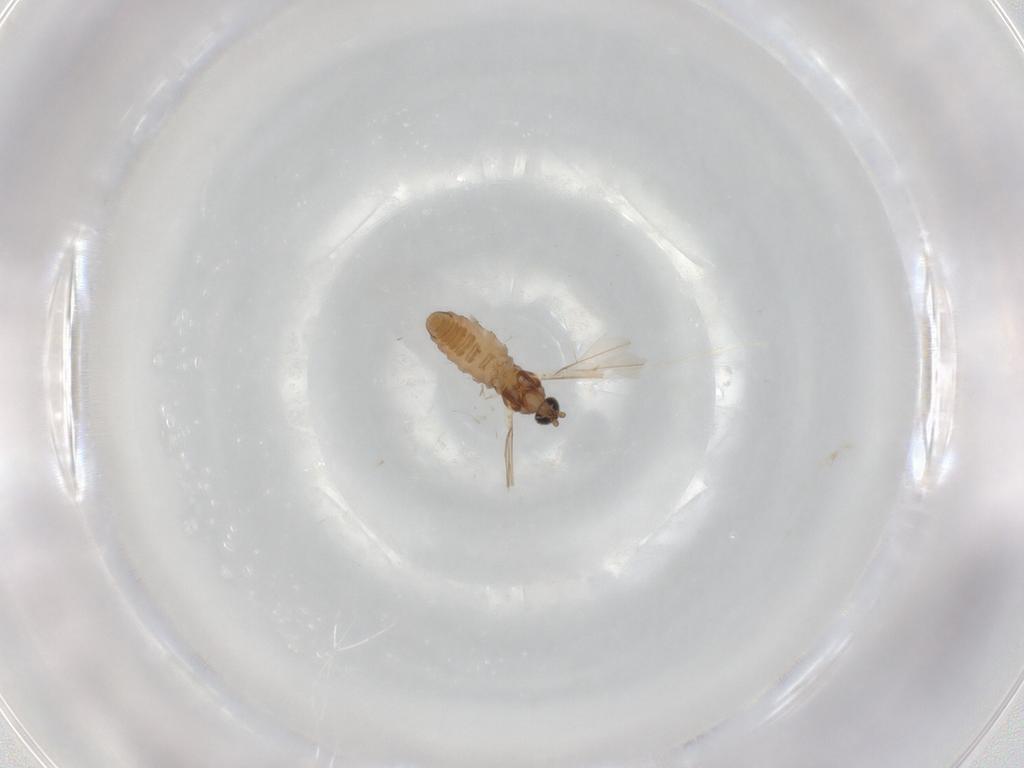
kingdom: Animalia
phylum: Arthropoda
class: Insecta
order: Diptera
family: Cecidomyiidae
